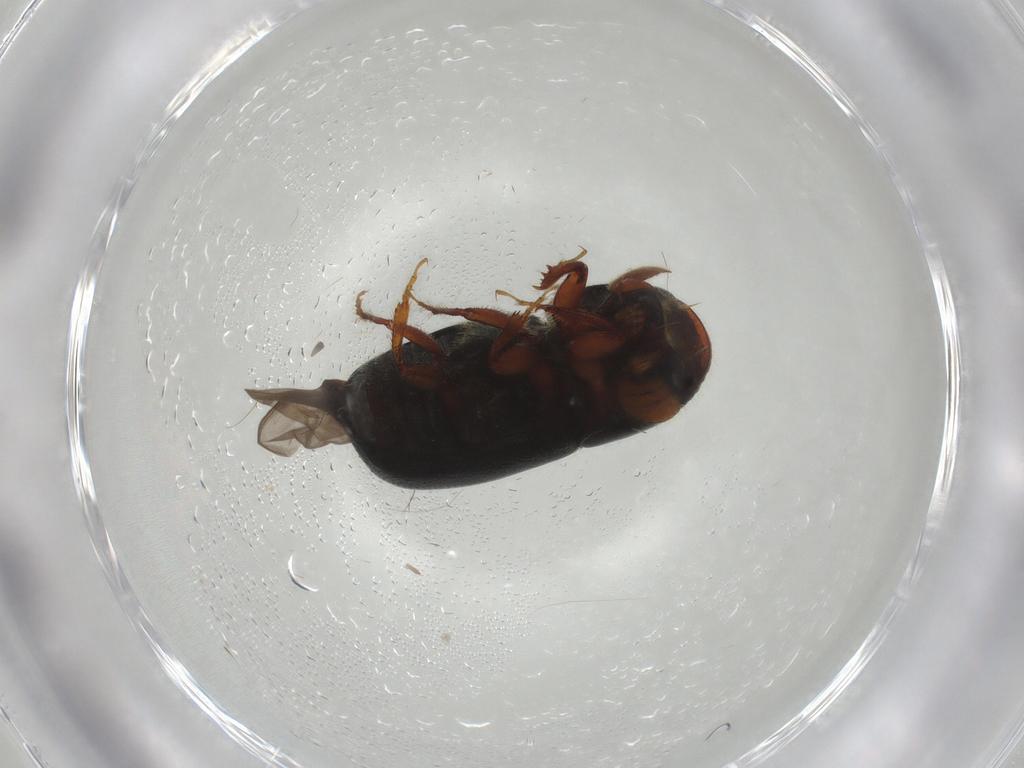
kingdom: Animalia
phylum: Arthropoda
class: Insecta
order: Coleoptera
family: Curculionidae
